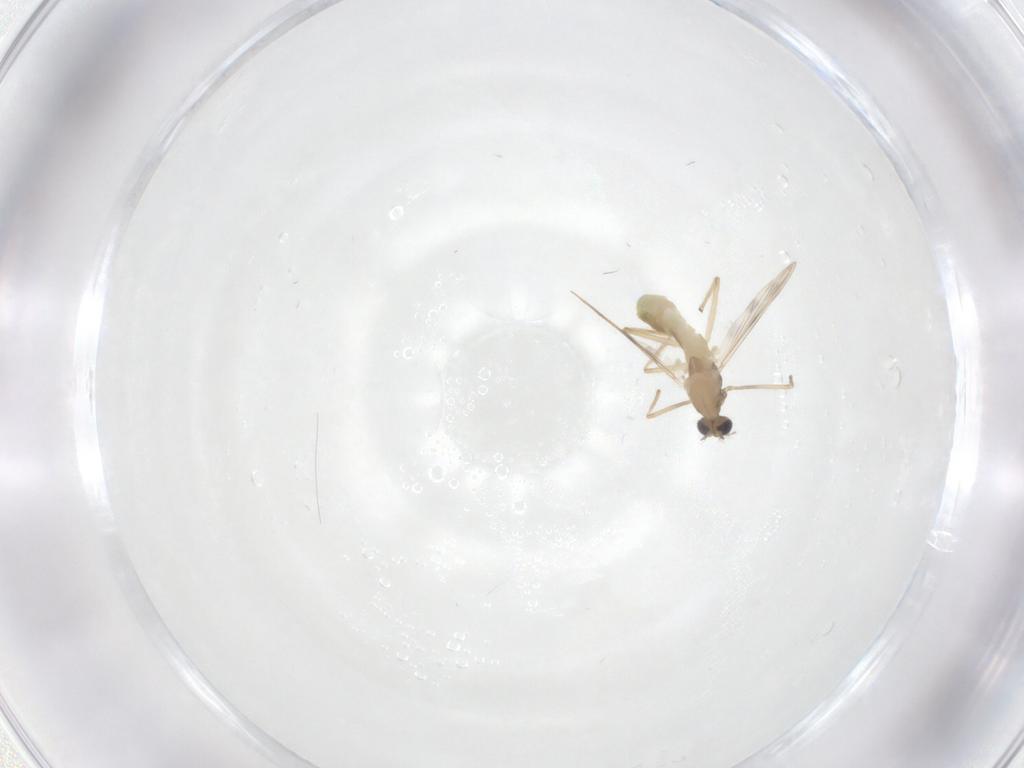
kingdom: Animalia
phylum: Arthropoda
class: Insecta
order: Diptera
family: Chironomidae
